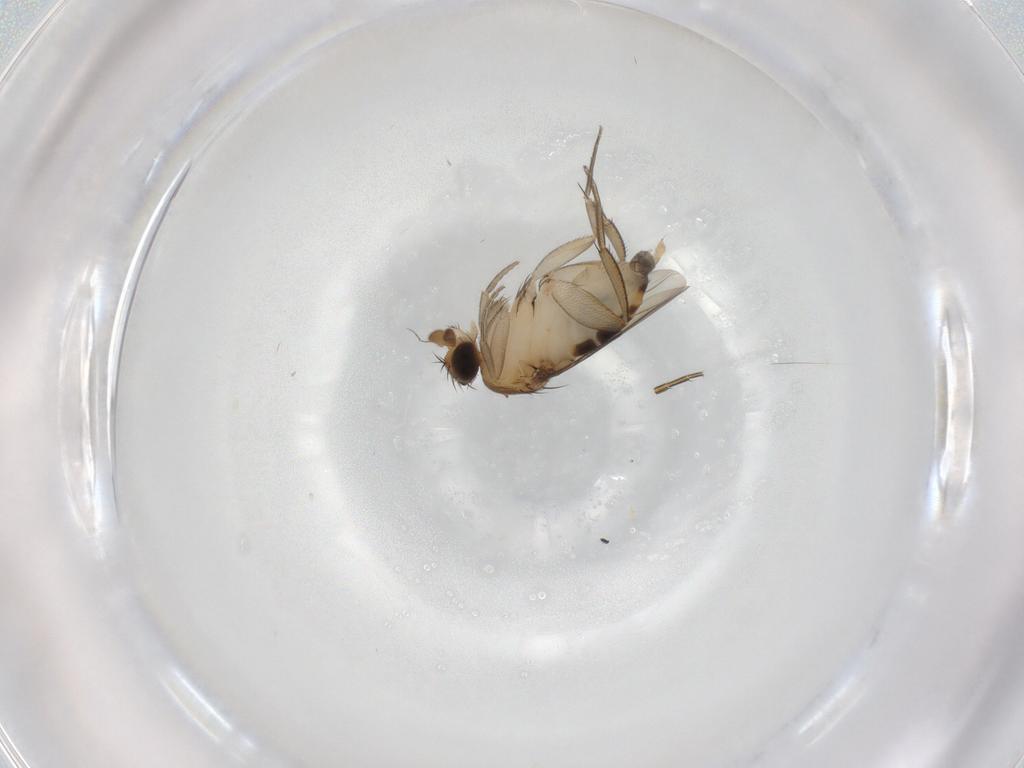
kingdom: Animalia
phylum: Arthropoda
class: Insecta
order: Diptera
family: Phoridae
